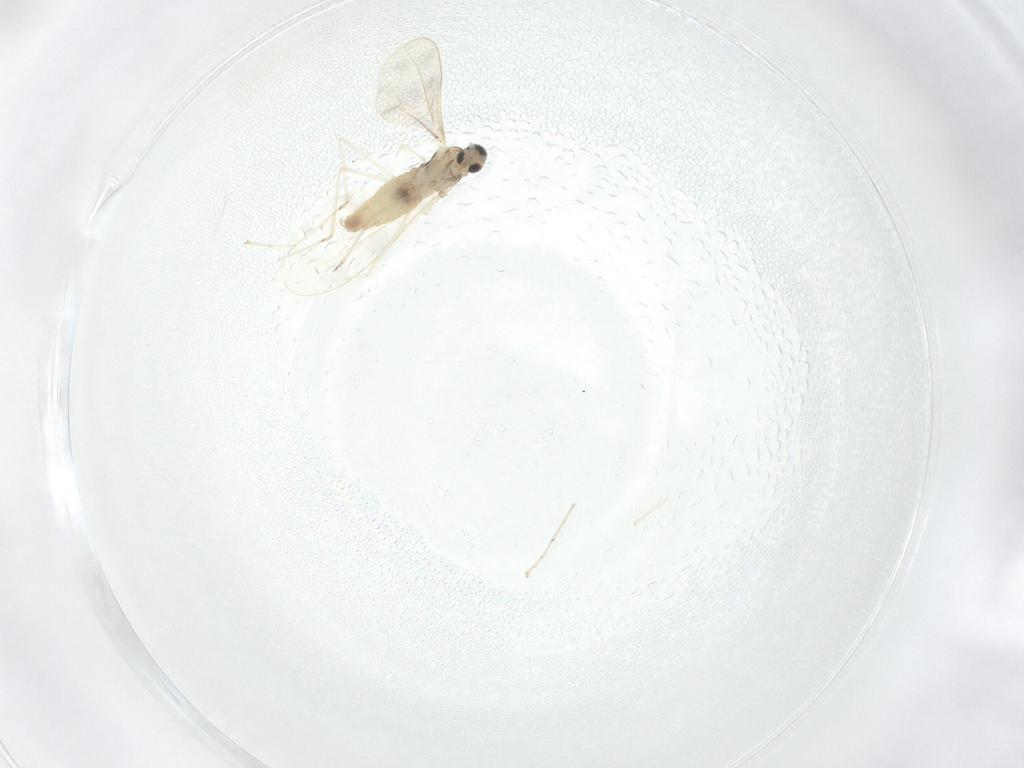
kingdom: Animalia
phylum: Arthropoda
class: Insecta
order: Diptera
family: Cecidomyiidae
